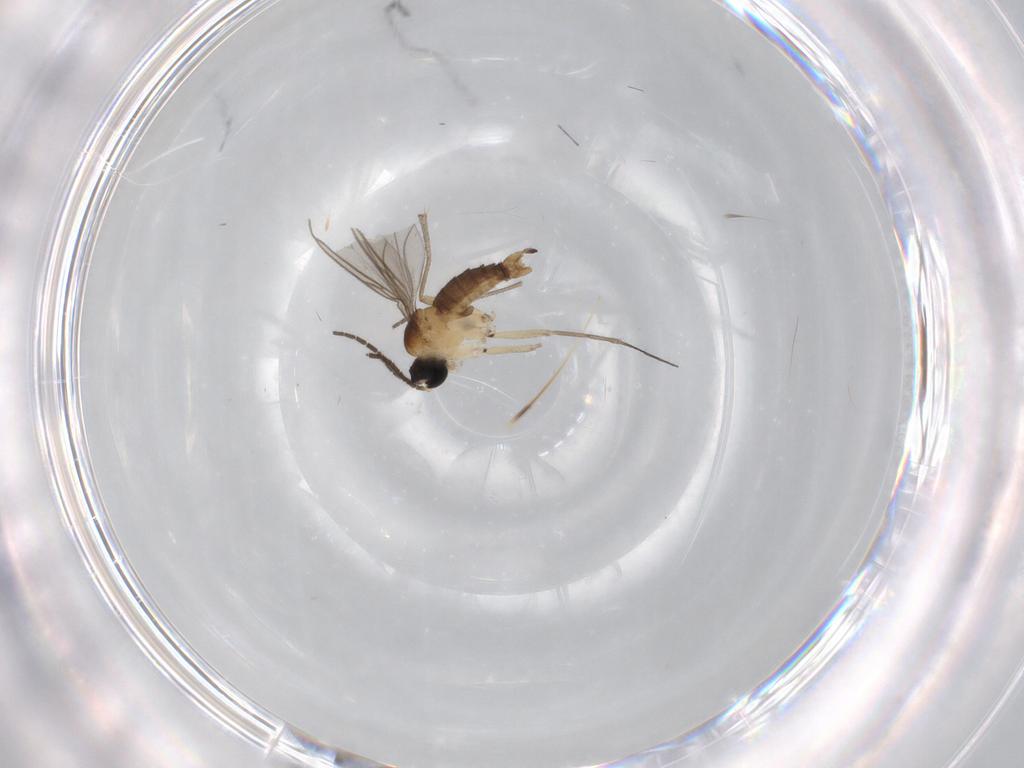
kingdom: Animalia
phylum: Arthropoda
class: Insecta
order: Diptera
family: Sciaridae
